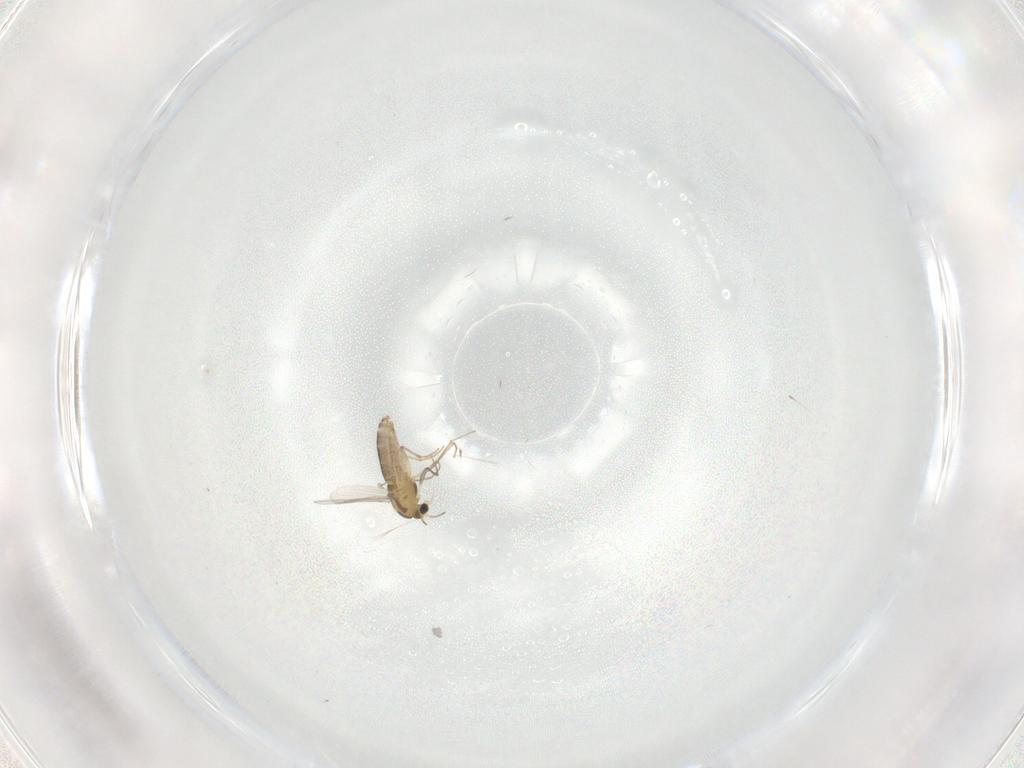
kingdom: Animalia
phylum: Arthropoda
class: Insecta
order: Diptera
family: Chironomidae
